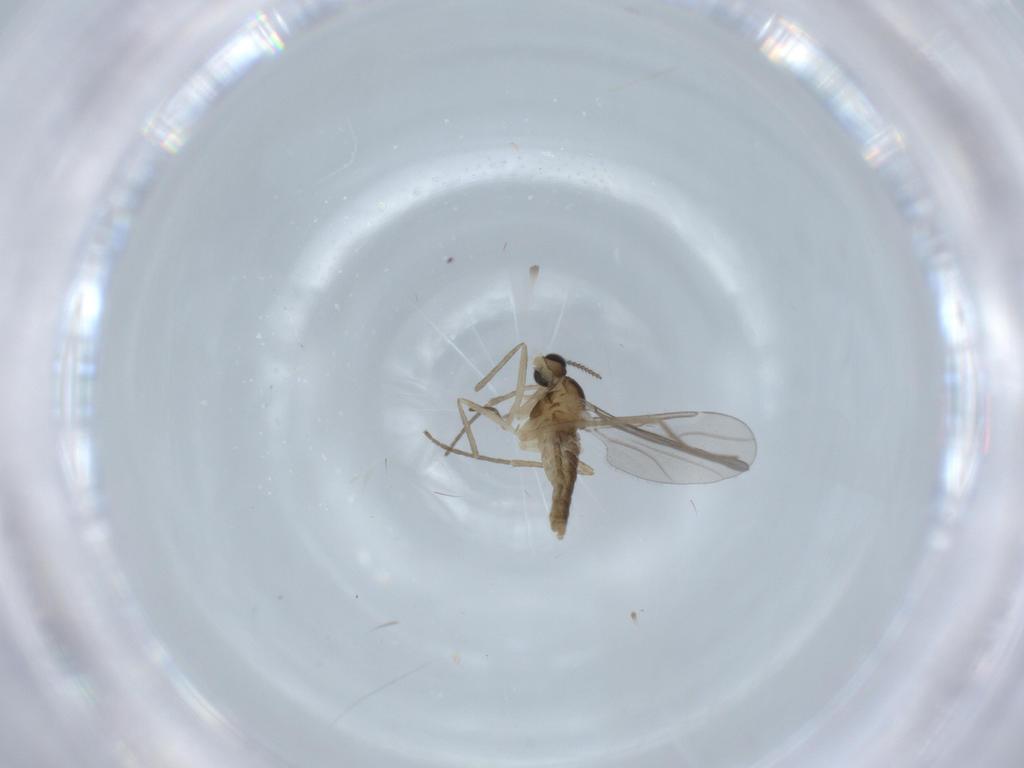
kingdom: Animalia
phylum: Arthropoda
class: Insecta
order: Diptera
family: Cecidomyiidae
